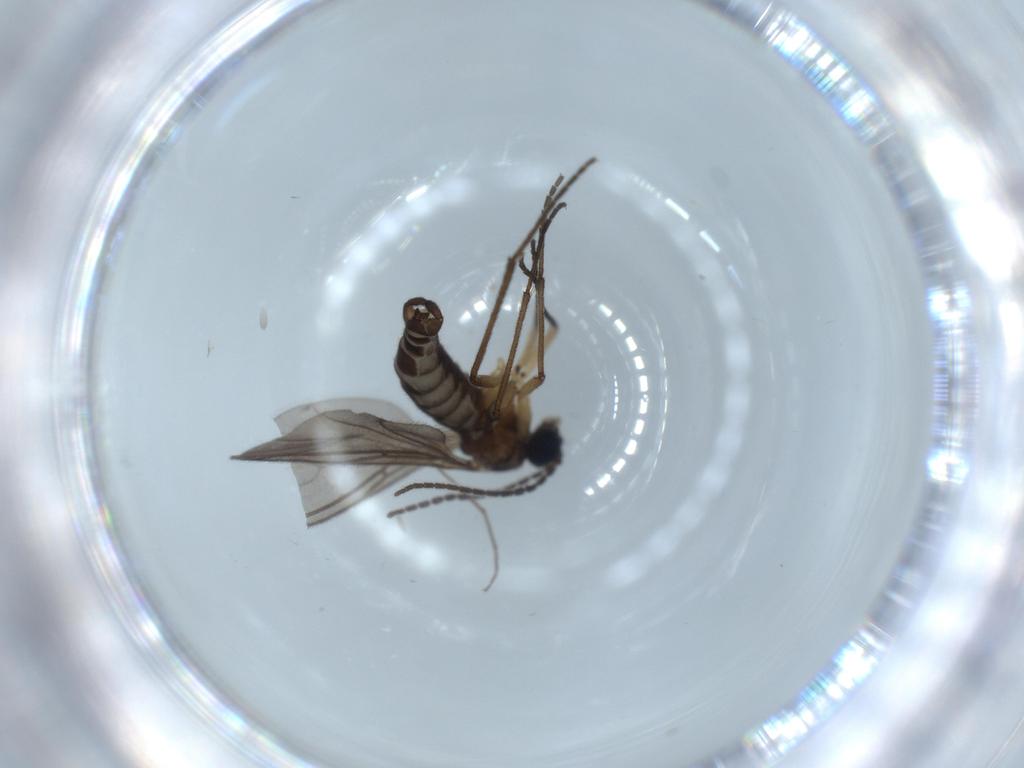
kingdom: Animalia
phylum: Arthropoda
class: Insecta
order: Diptera
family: Sciaridae
